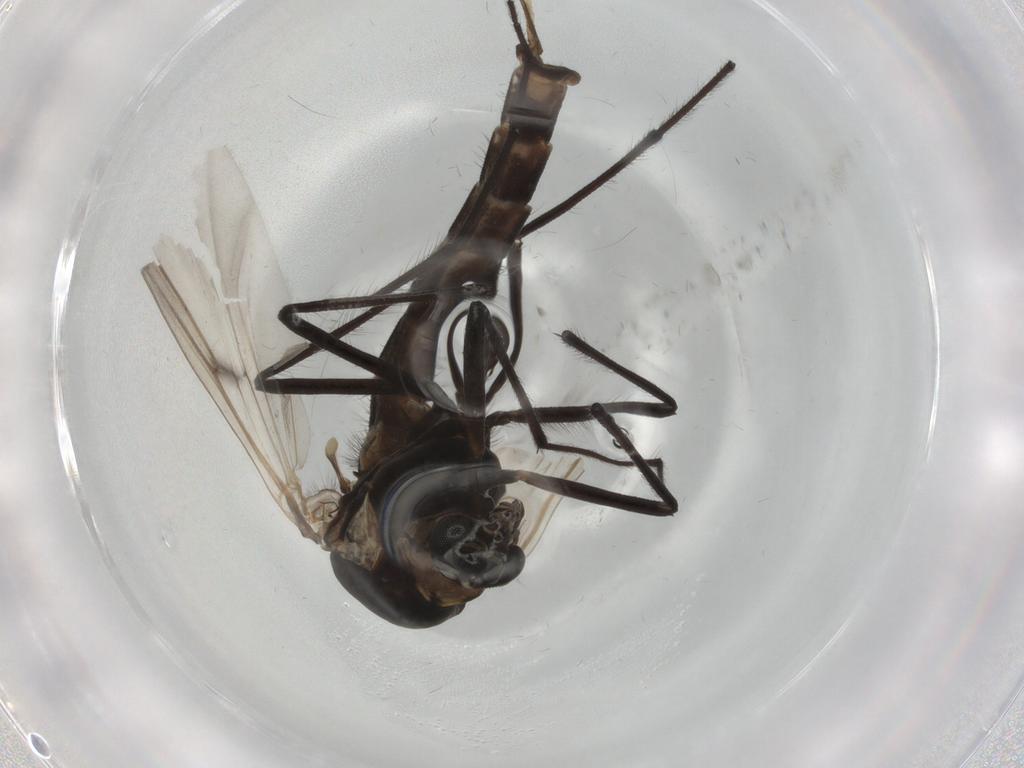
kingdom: Animalia
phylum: Arthropoda
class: Insecta
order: Diptera
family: Chironomidae
